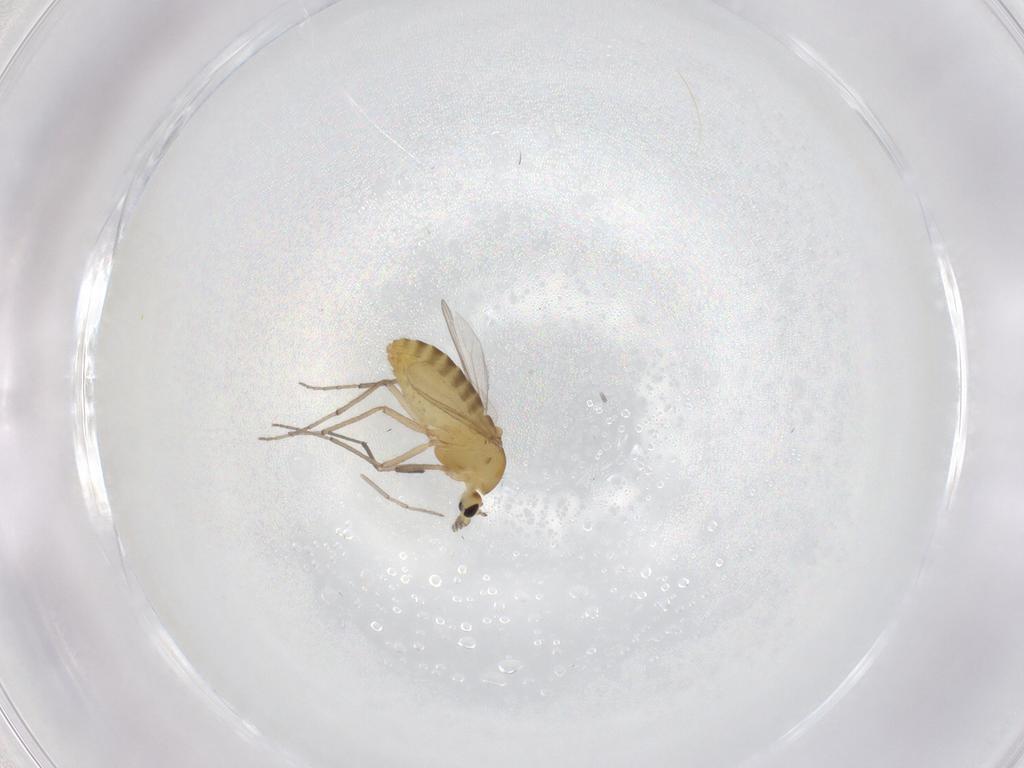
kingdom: Animalia
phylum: Arthropoda
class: Insecta
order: Diptera
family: Chironomidae
